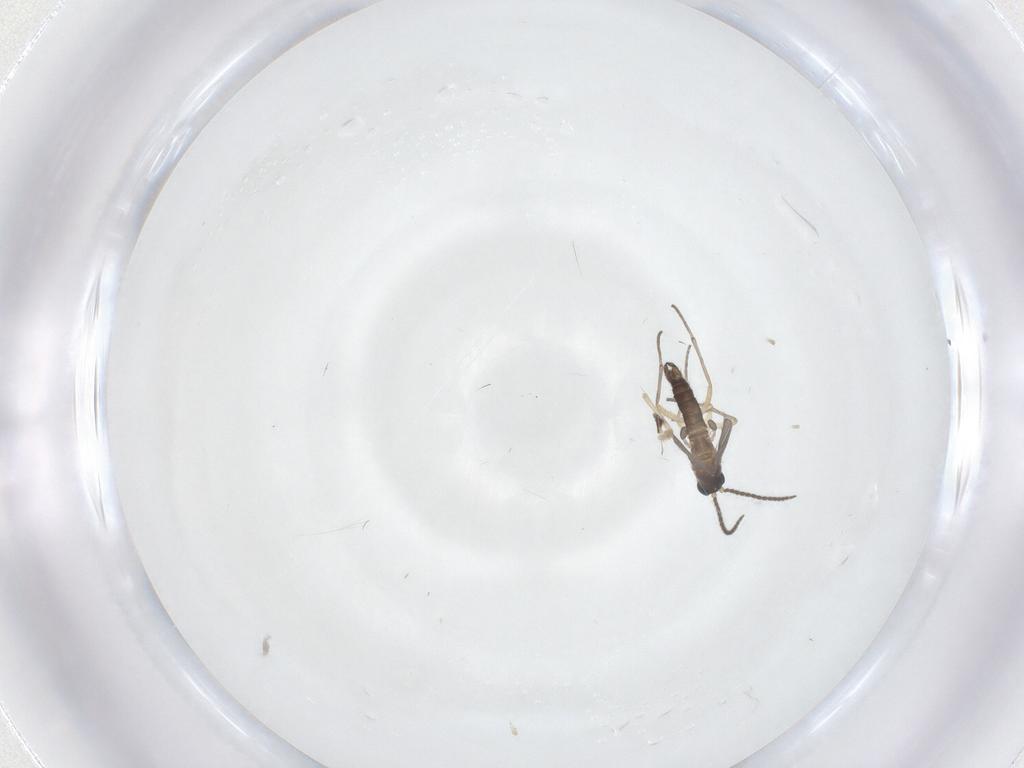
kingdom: Animalia
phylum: Arthropoda
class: Insecta
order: Diptera
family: Sciaridae
